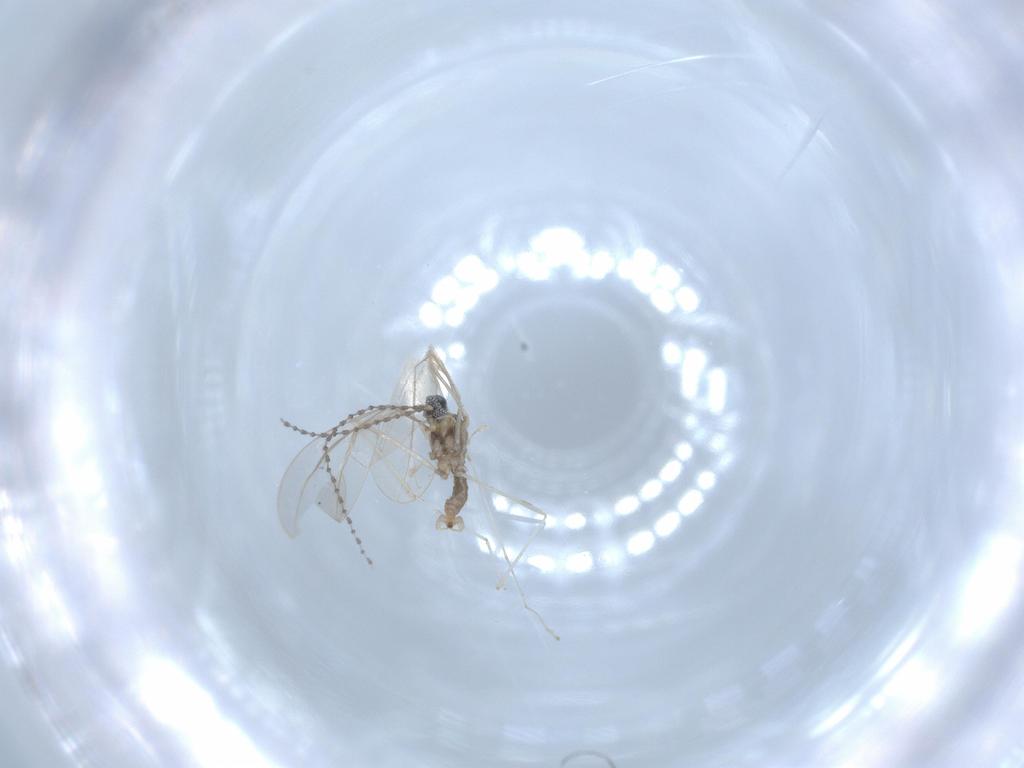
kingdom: Animalia
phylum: Arthropoda
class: Insecta
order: Diptera
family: Cecidomyiidae
